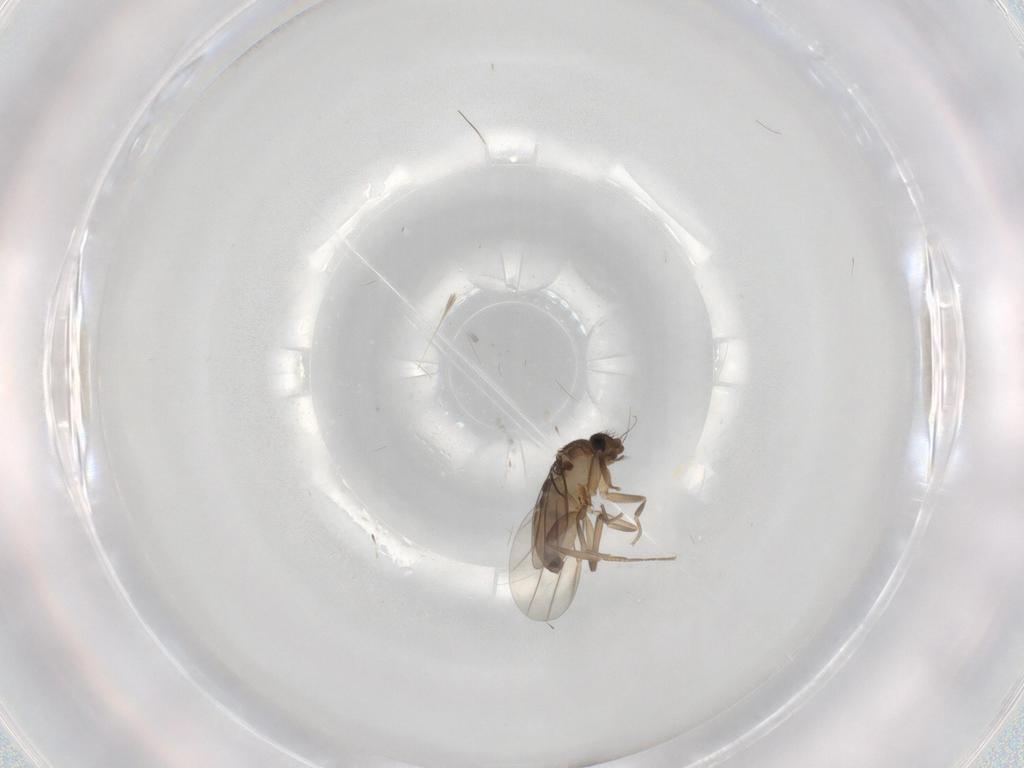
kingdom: Animalia
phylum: Arthropoda
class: Insecta
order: Diptera
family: Phoridae
